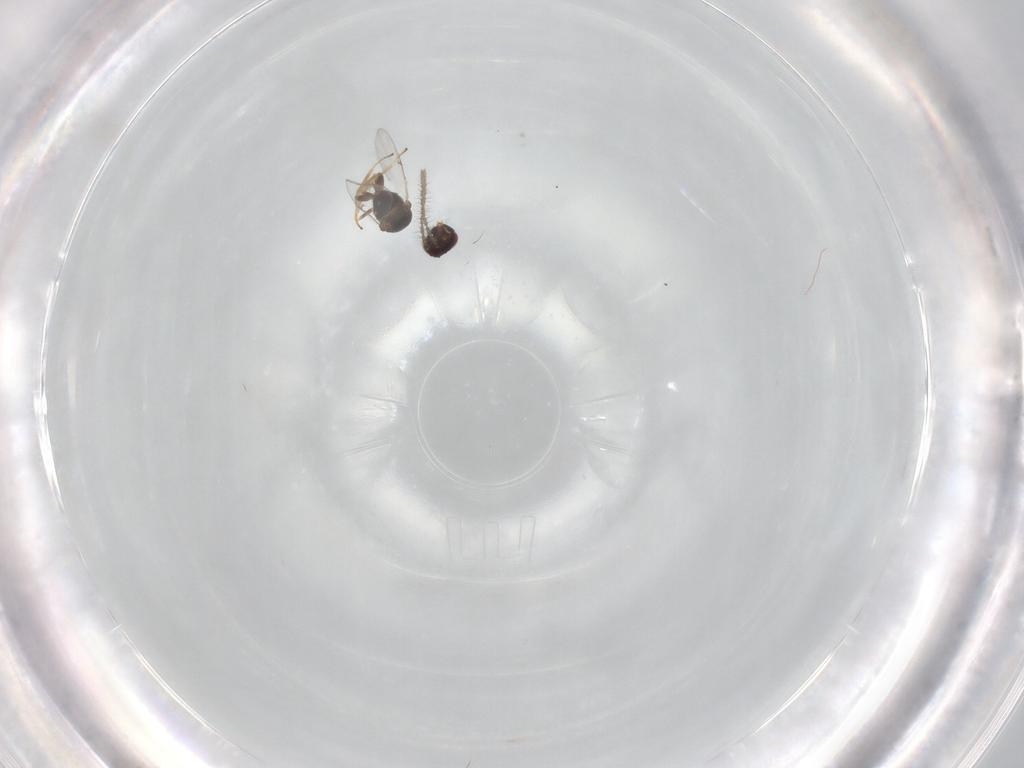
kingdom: Animalia
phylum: Arthropoda
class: Insecta
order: Hymenoptera
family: Encyrtidae
